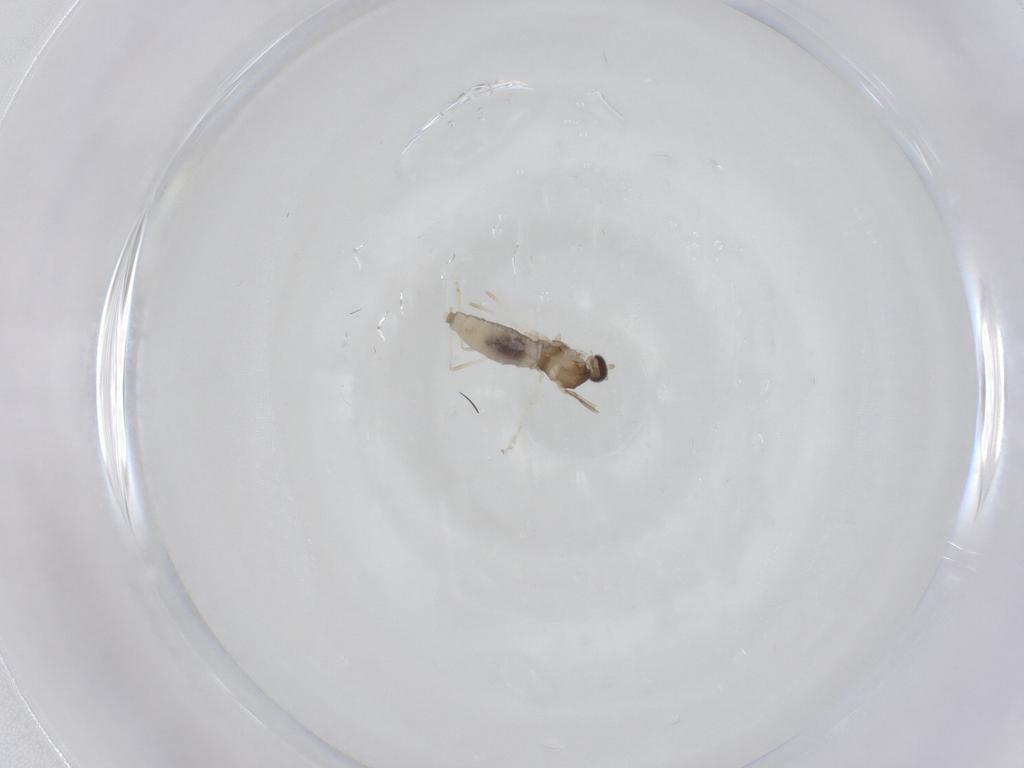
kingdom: Animalia
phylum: Arthropoda
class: Insecta
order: Diptera
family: Cecidomyiidae
